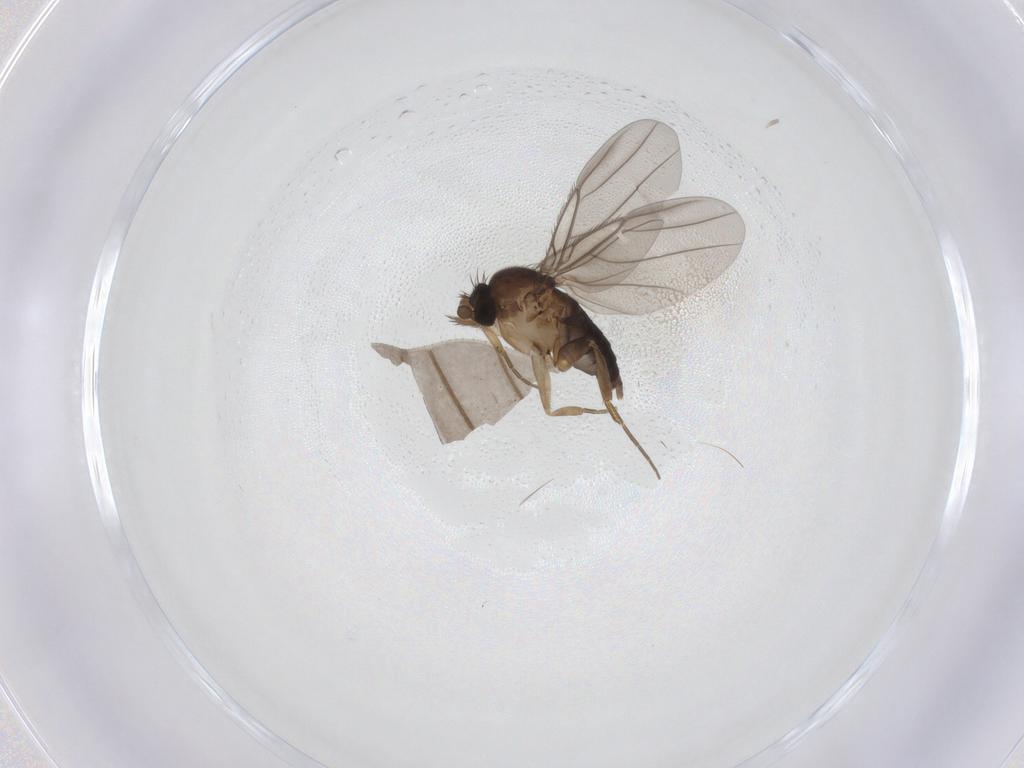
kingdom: Animalia
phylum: Arthropoda
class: Insecta
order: Diptera
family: Phoridae
